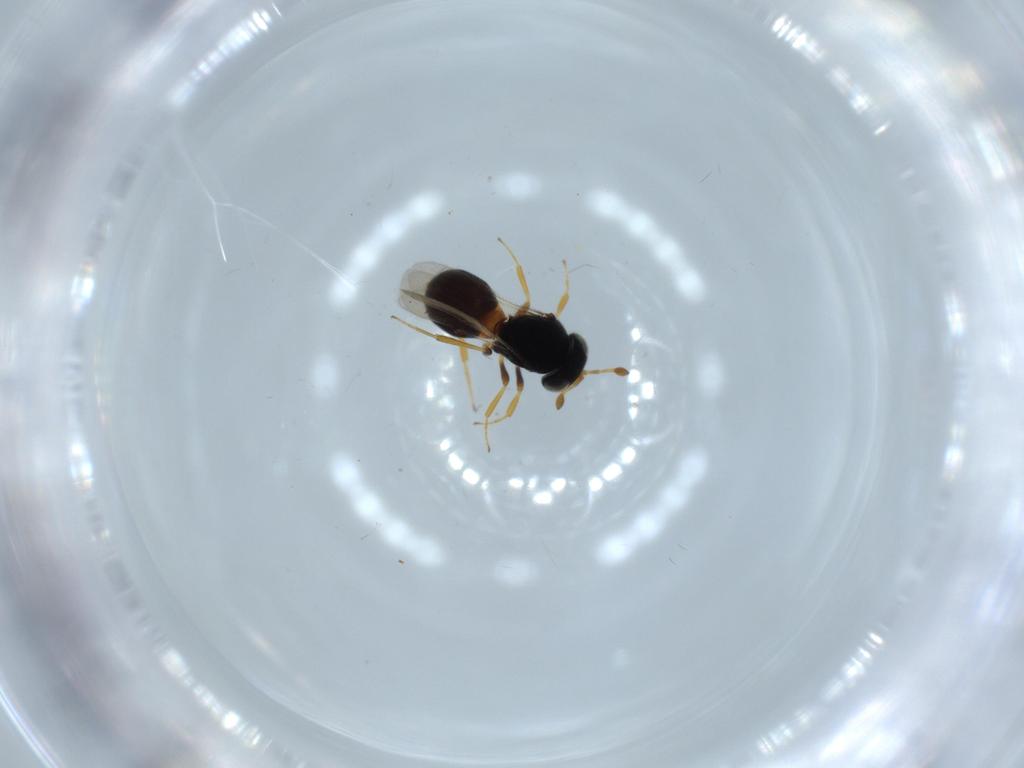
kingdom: Animalia
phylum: Arthropoda
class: Insecta
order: Hymenoptera
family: Scelionidae
